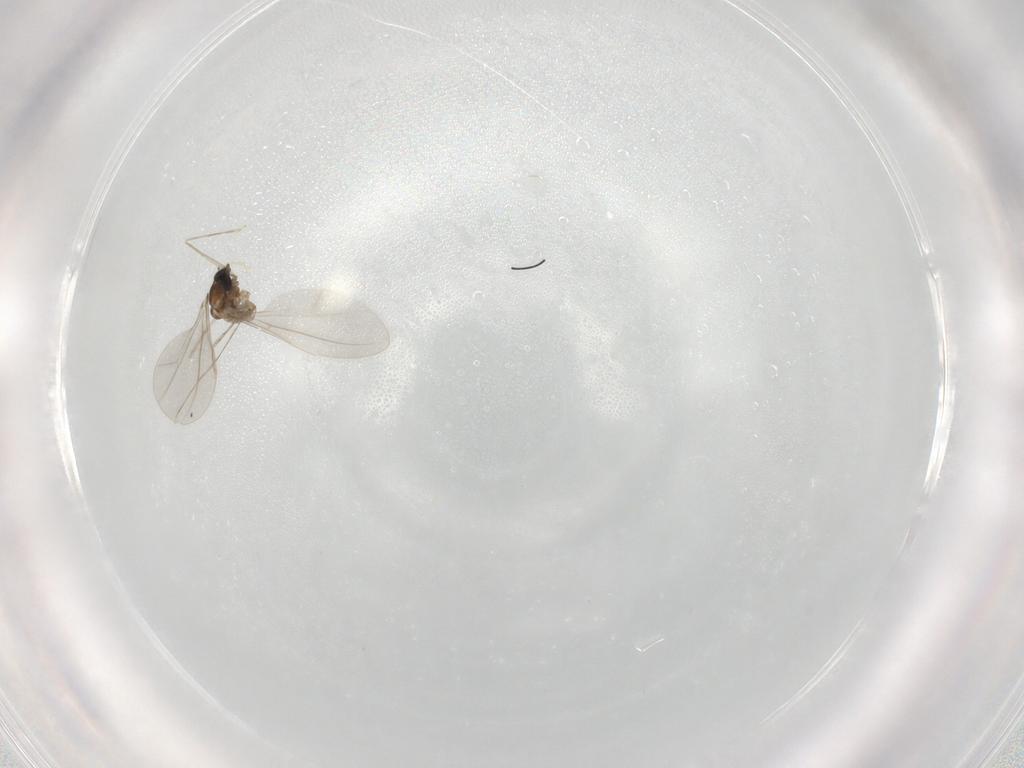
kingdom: Animalia
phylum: Arthropoda
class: Insecta
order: Diptera
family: Cecidomyiidae
